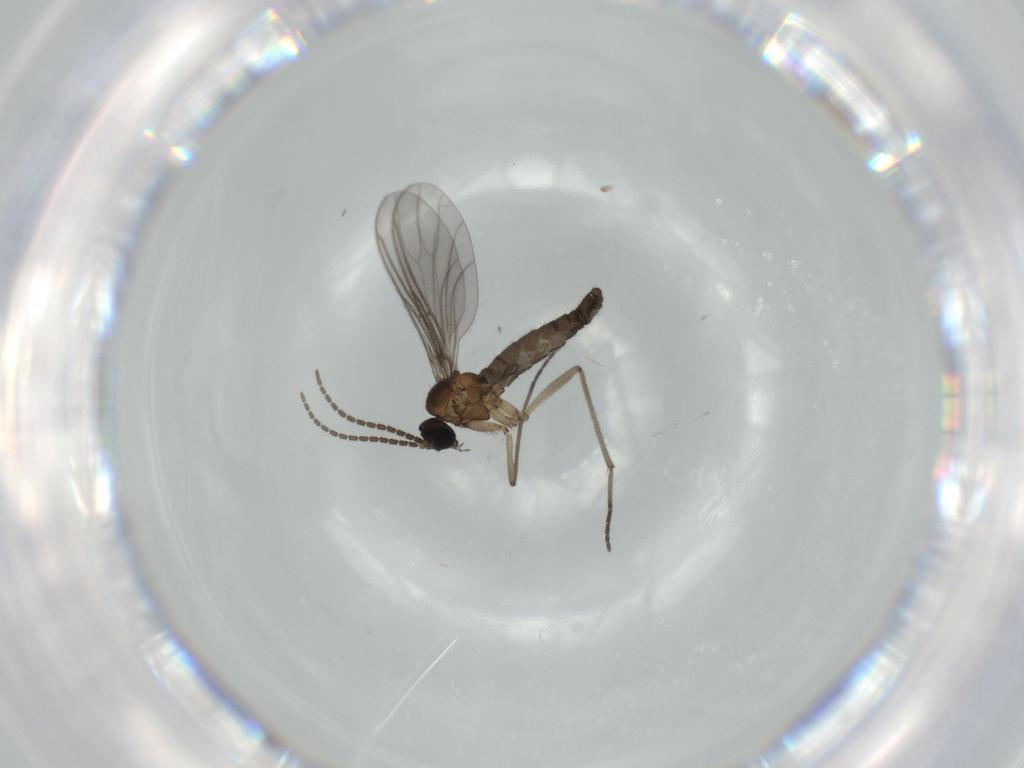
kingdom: Animalia
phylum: Arthropoda
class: Insecta
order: Diptera
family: Sciaridae
